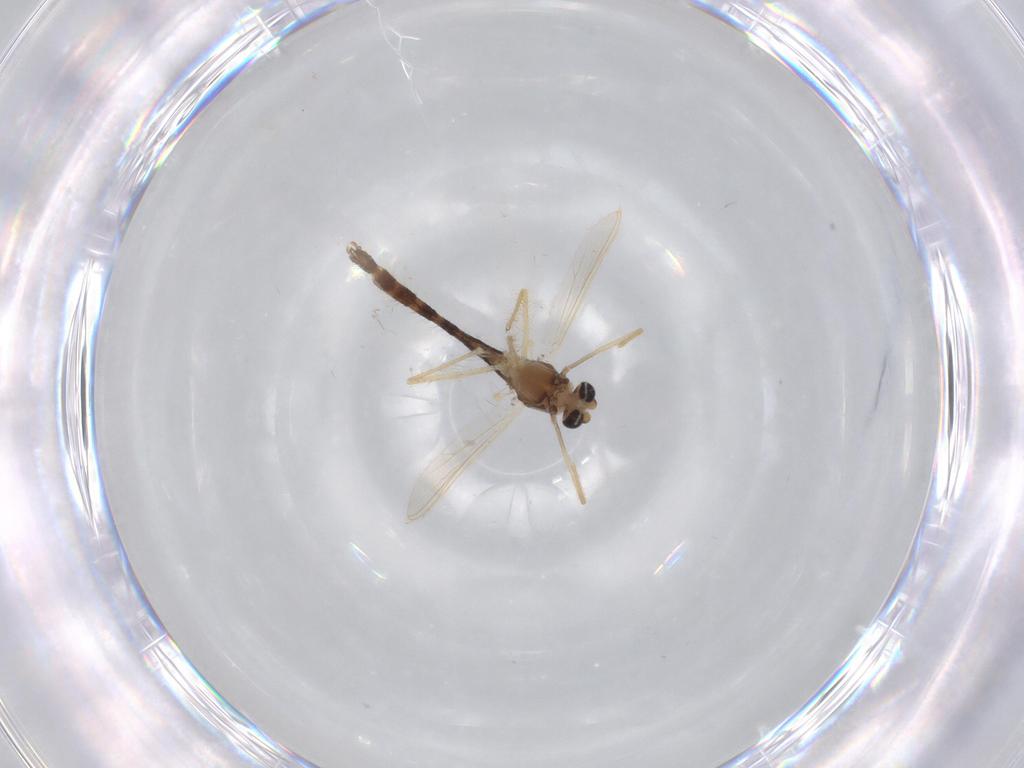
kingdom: Animalia
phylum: Arthropoda
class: Insecta
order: Diptera
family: Chironomidae
